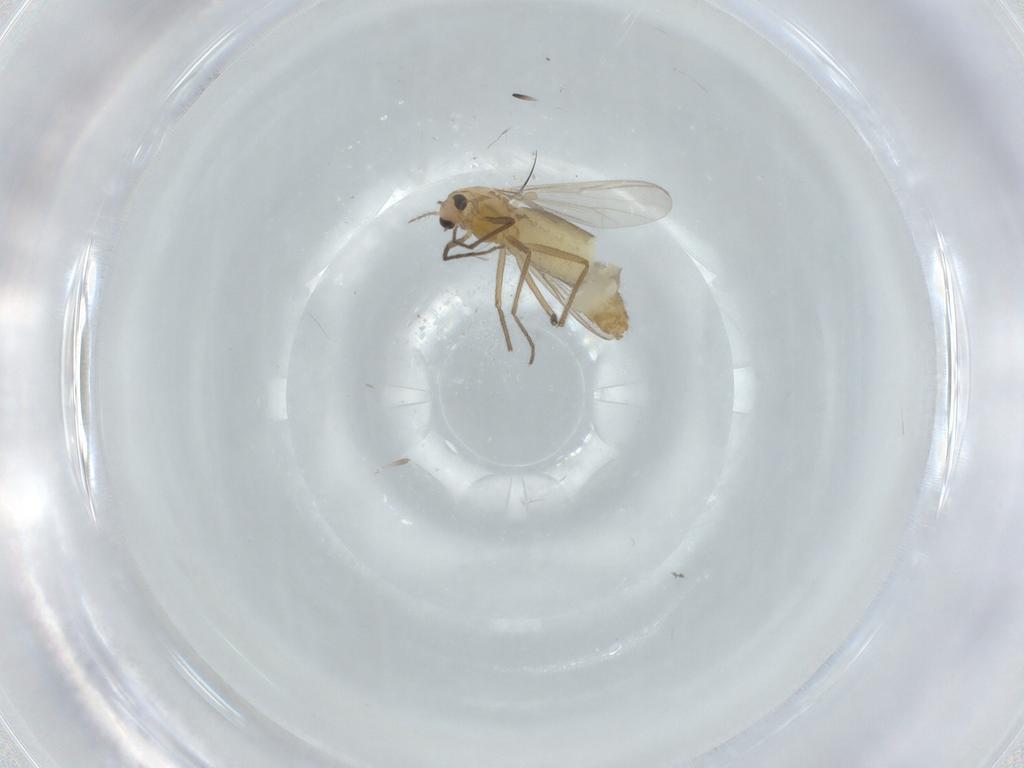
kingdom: Animalia
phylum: Arthropoda
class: Insecta
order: Diptera
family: Chironomidae
